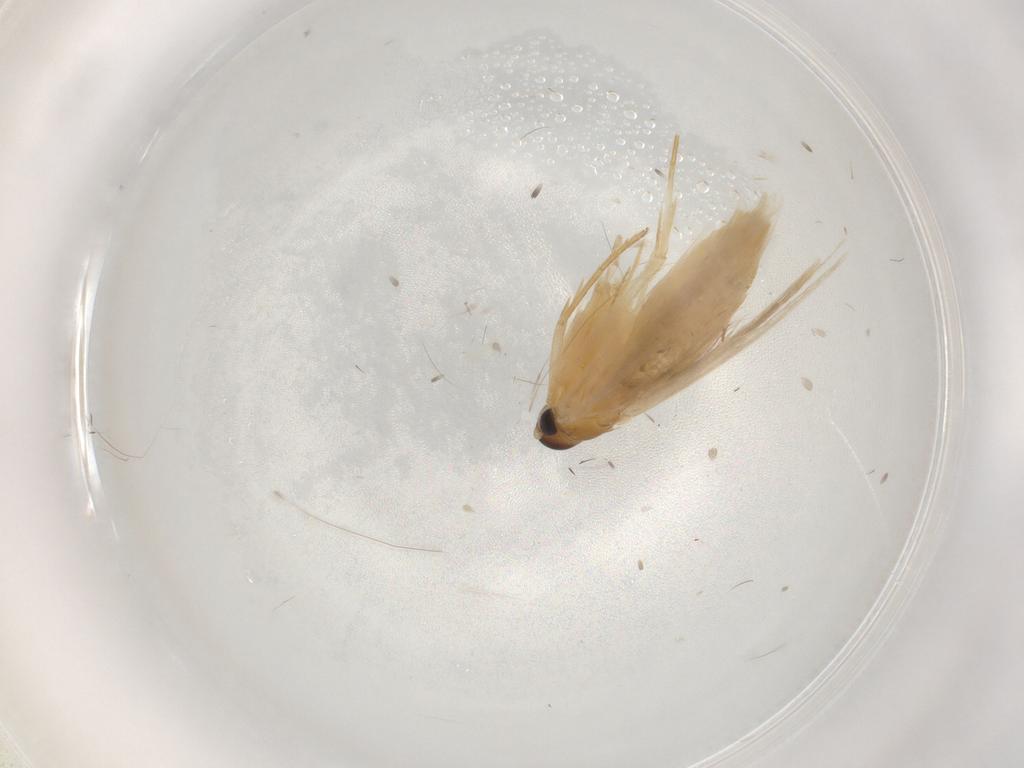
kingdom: Animalia
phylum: Arthropoda
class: Insecta
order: Lepidoptera
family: Lecithoceridae
